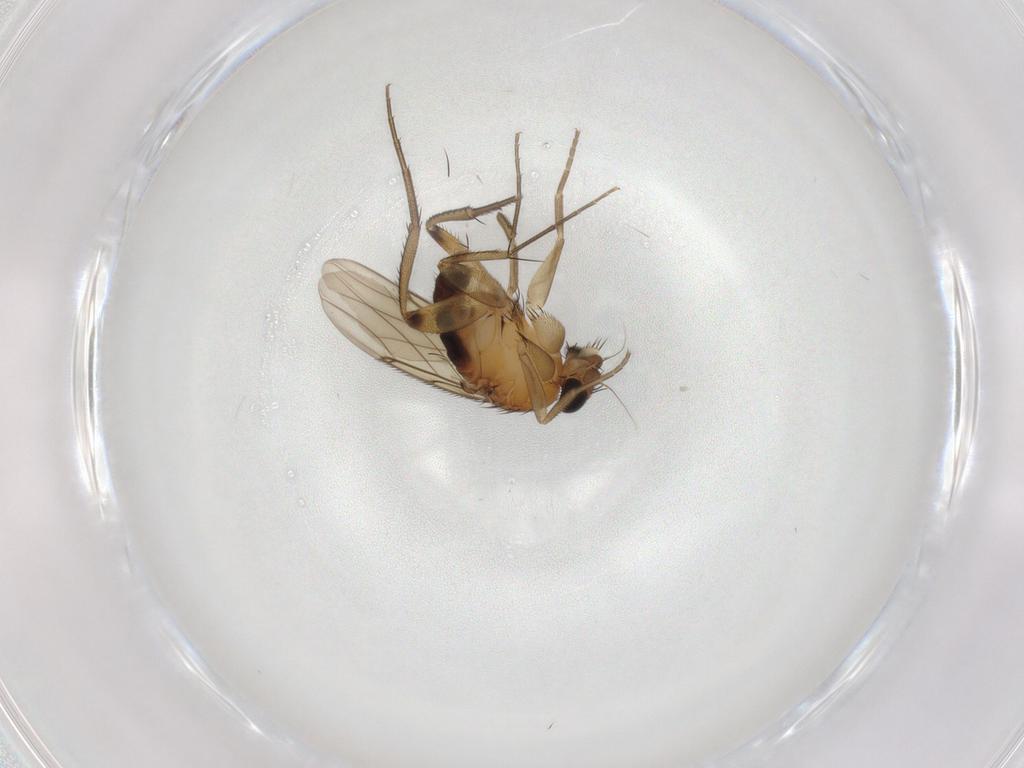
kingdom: Animalia
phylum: Arthropoda
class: Insecta
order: Diptera
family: Phoridae
